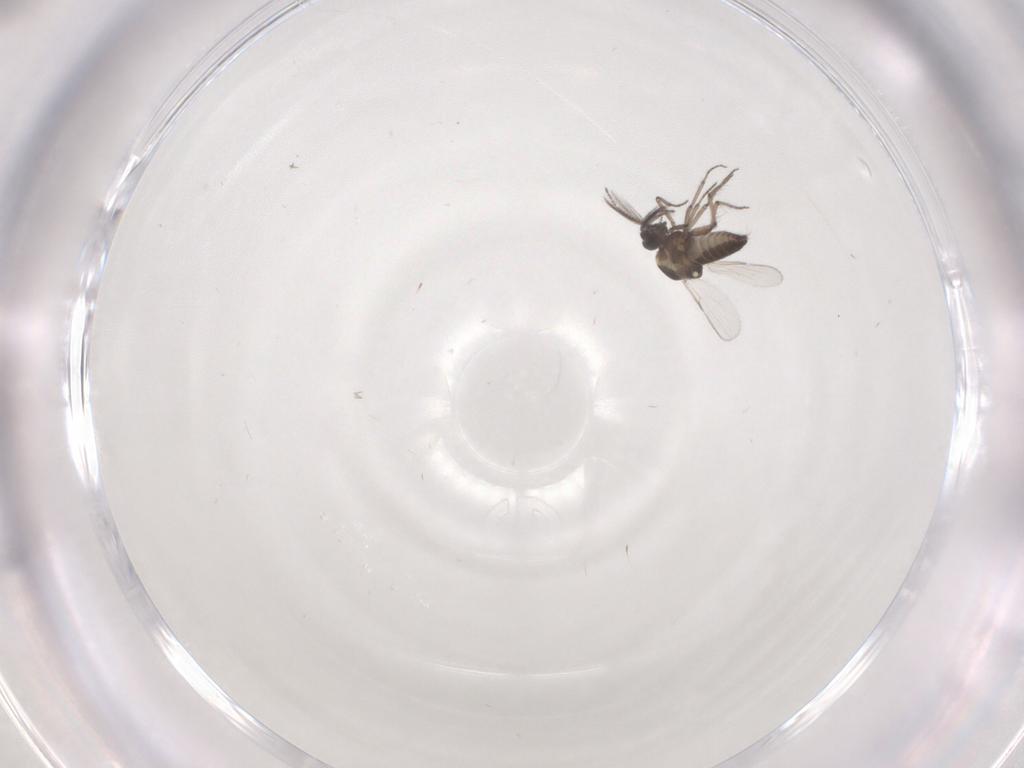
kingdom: Animalia
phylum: Arthropoda
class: Insecta
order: Diptera
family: Ceratopogonidae
